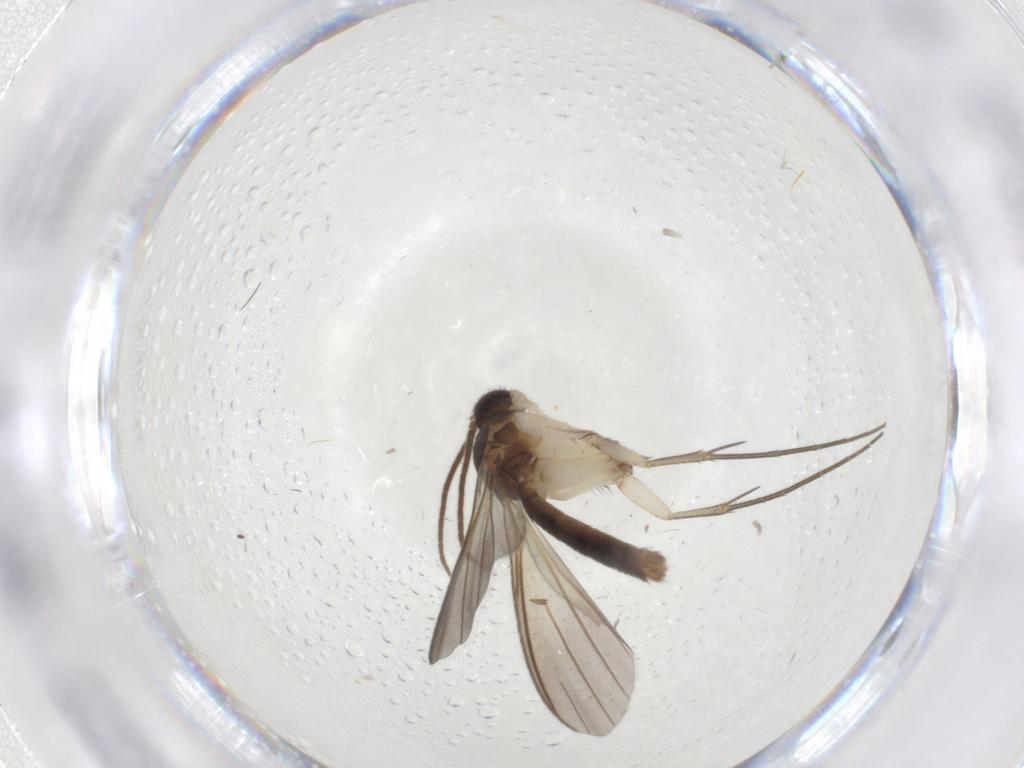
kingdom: Animalia
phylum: Arthropoda
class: Insecta
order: Diptera
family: Mycetophilidae
